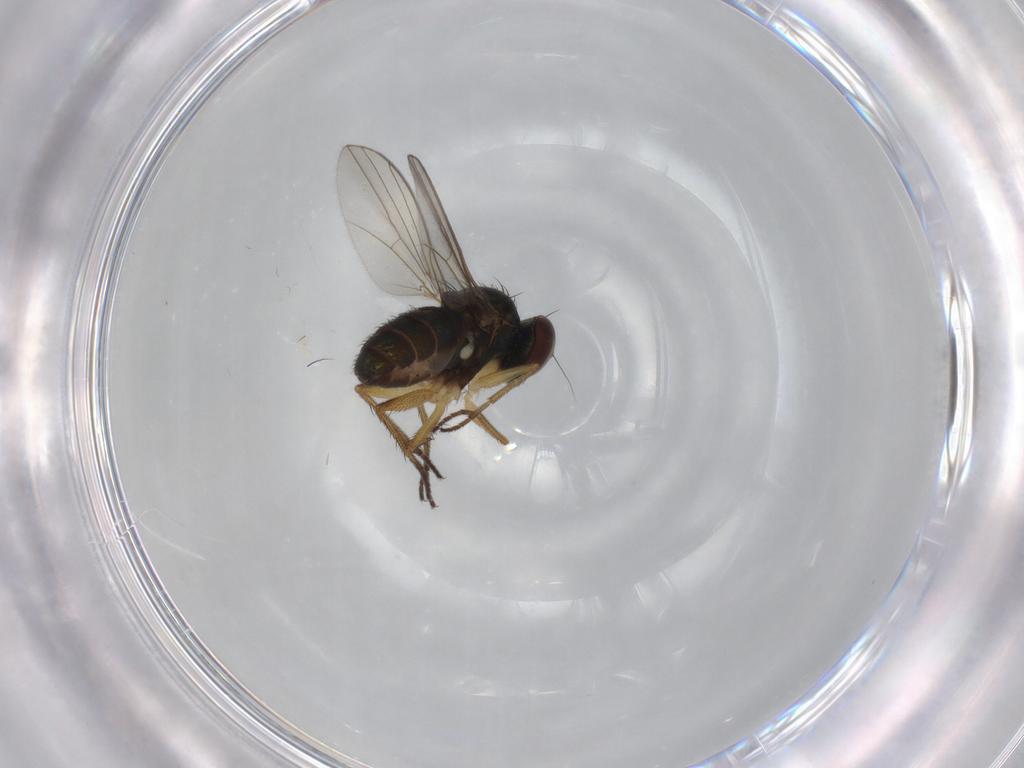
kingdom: Animalia
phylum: Arthropoda
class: Insecta
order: Diptera
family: Dolichopodidae
